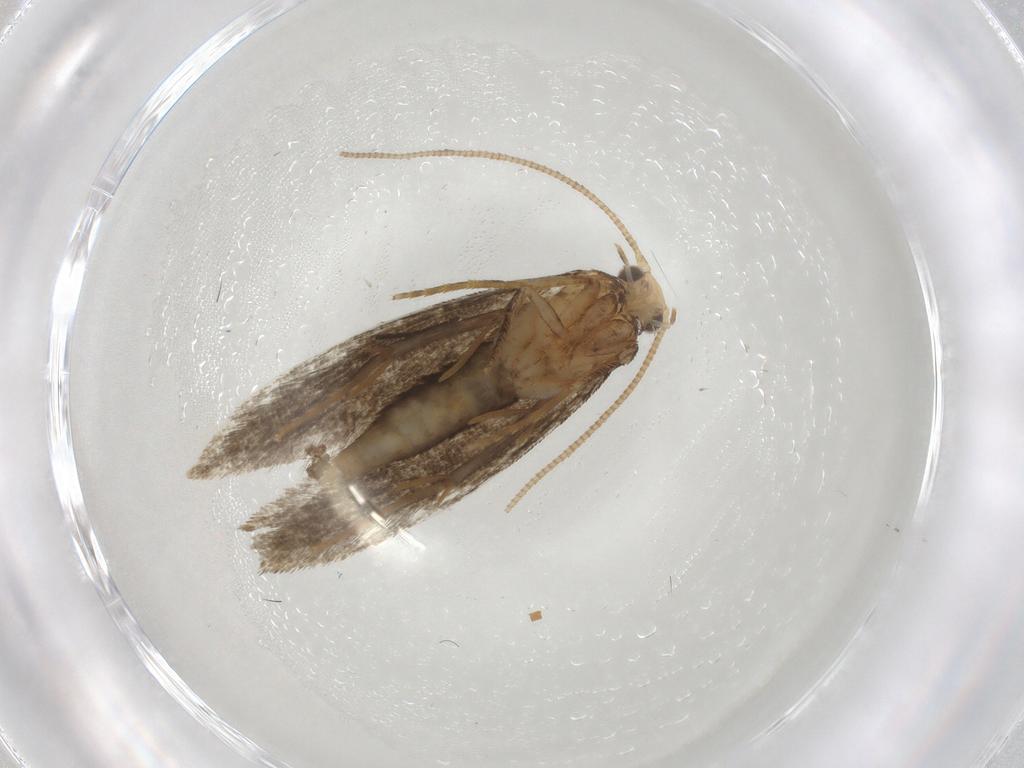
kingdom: Animalia
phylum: Arthropoda
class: Insecta
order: Lepidoptera
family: Tineidae
